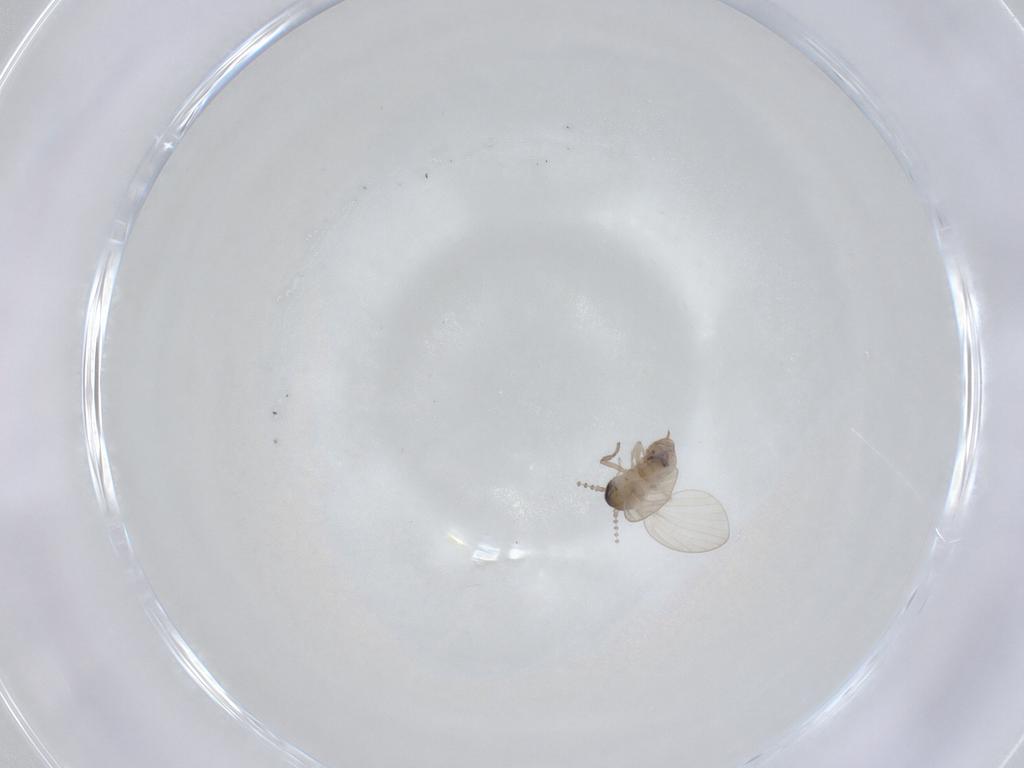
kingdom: Animalia
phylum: Arthropoda
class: Insecta
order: Diptera
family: Psychodidae
